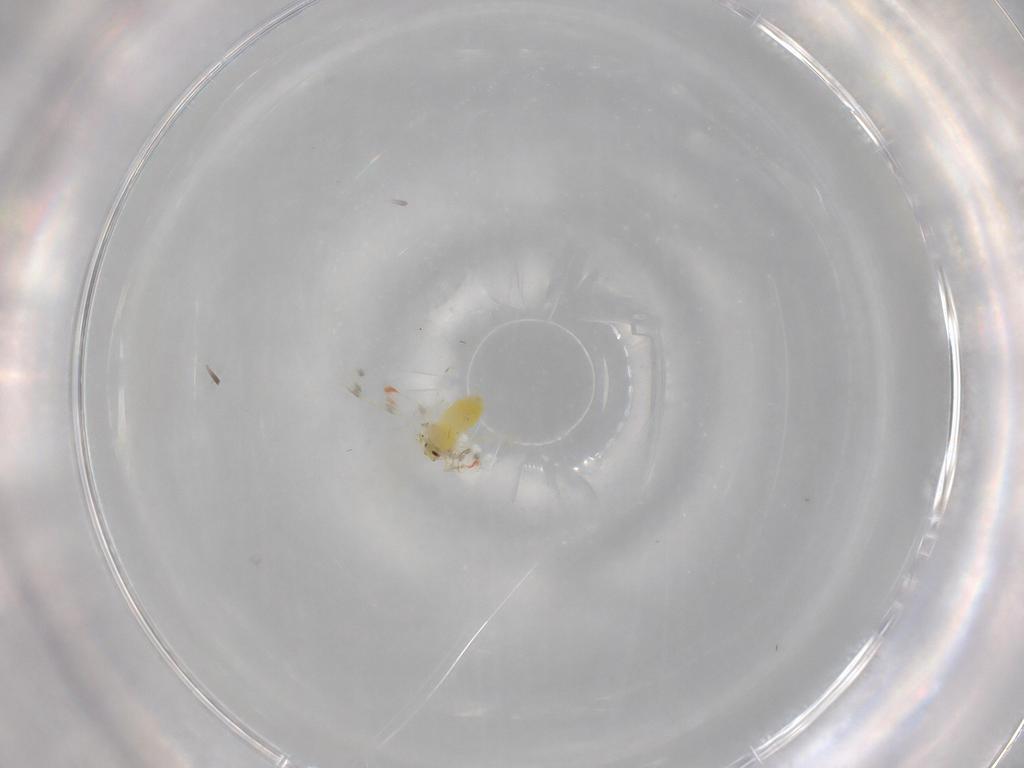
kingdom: Animalia
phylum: Arthropoda
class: Insecta
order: Hemiptera
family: Aleyrodidae
